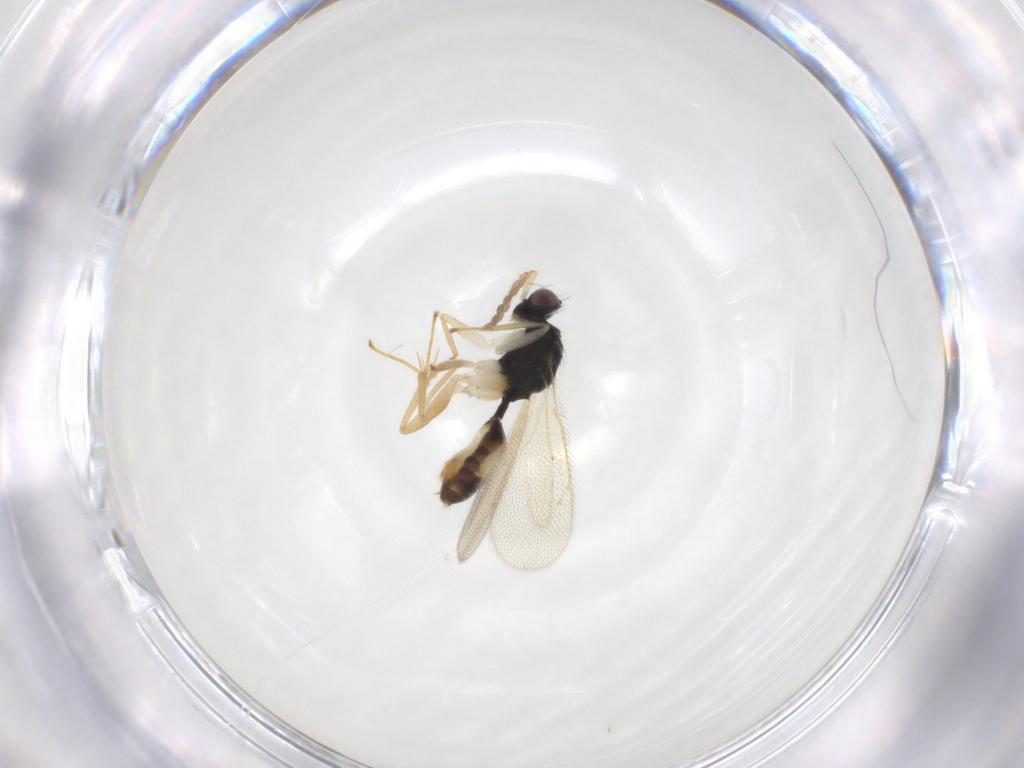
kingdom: Animalia
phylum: Arthropoda
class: Insecta
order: Hymenoptera
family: Eulophidae
